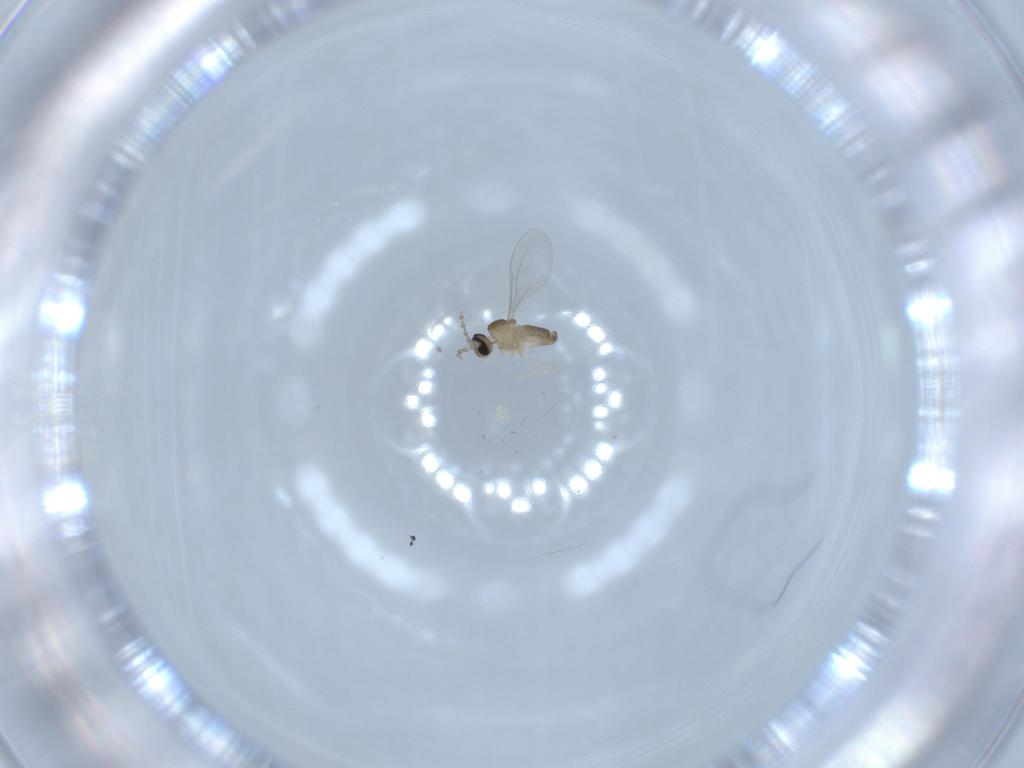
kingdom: Animalia
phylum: Arthropoda
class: Insecta
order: Diptera
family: Cecidomyiidae
